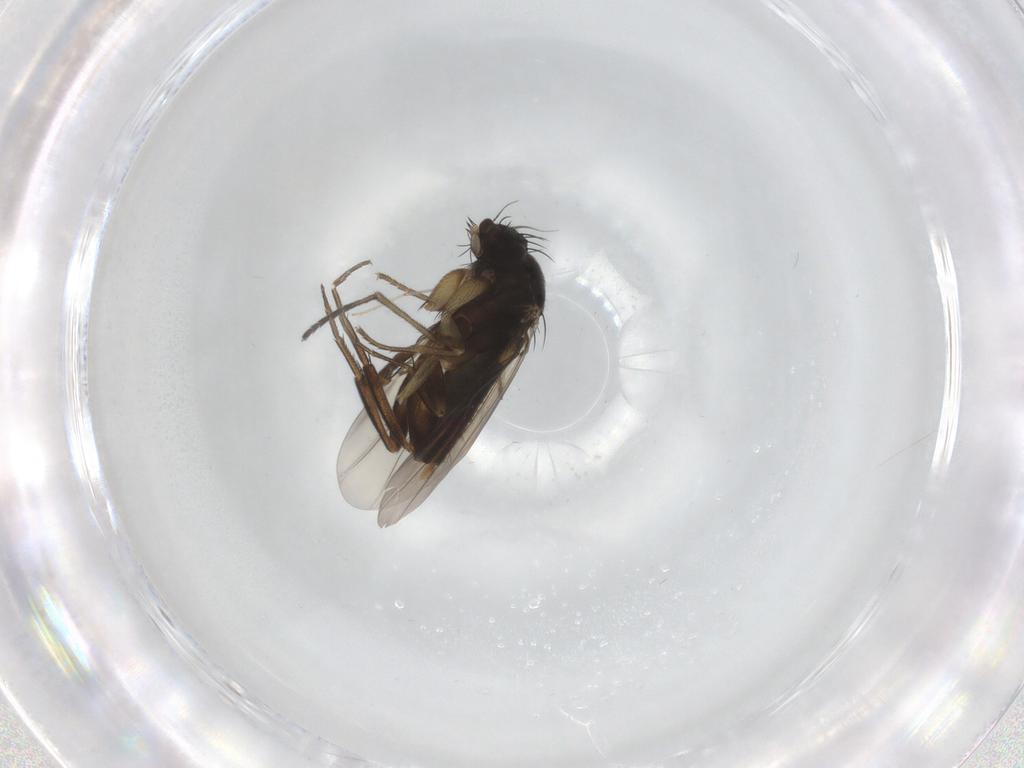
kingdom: Animalia
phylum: Arthropoda
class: Insecta
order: Diptera
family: Phoridae
